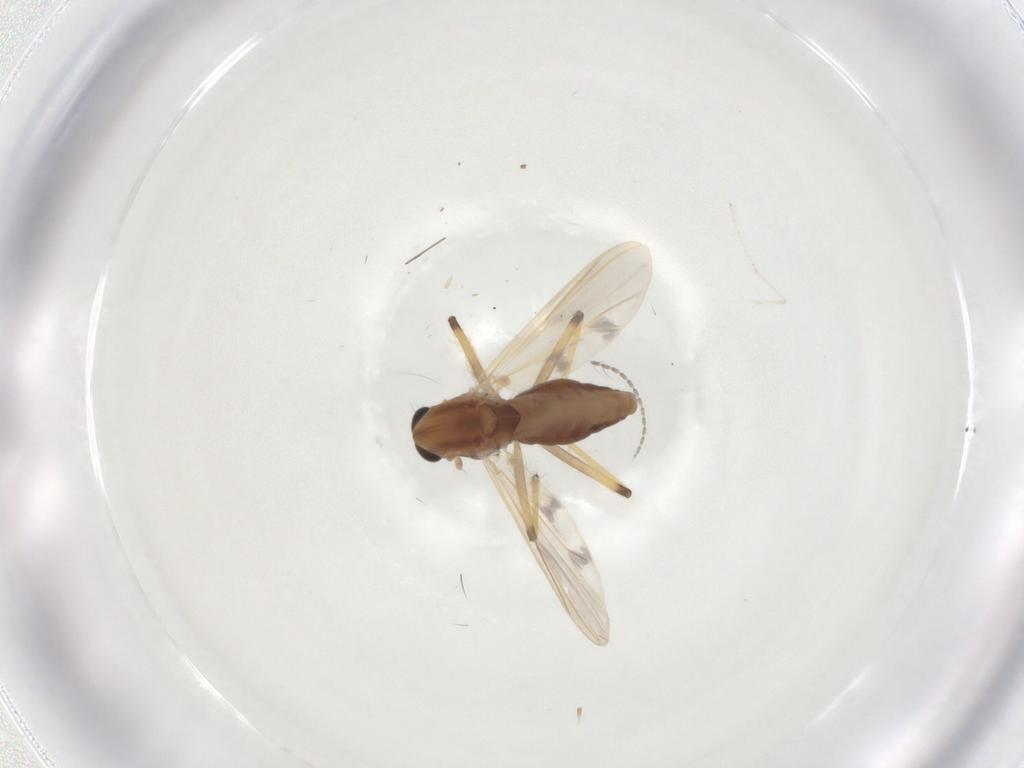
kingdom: Animalia
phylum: Arthropoda
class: Insecta
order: Diptera
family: Chironomidae
